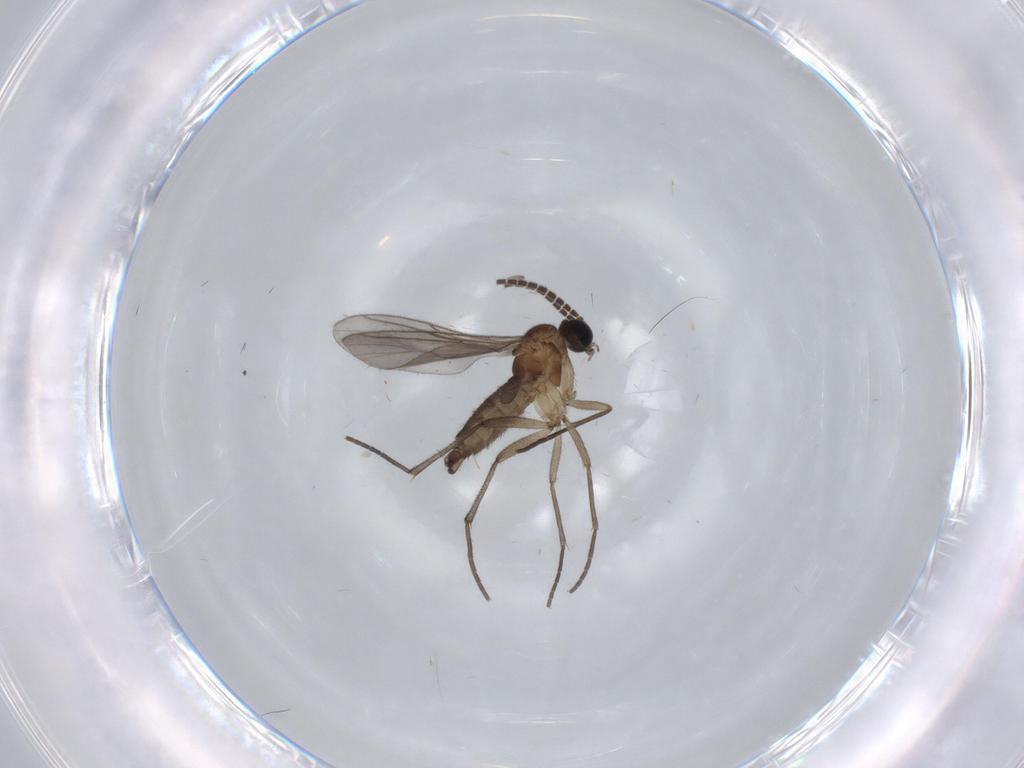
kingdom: Animalia
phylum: Arthropoda
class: Insecta
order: Diptera
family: Sciaridae
